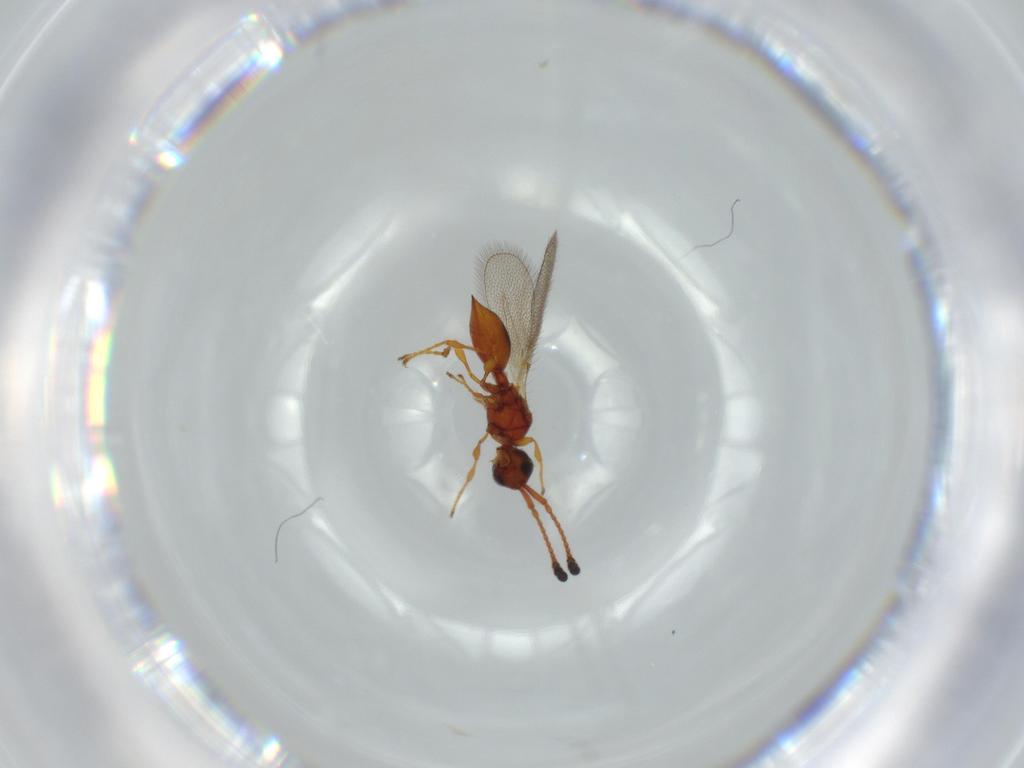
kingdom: Animalia
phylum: Arthropoda
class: Insecta
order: Hymenoptera
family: Diapriidae
